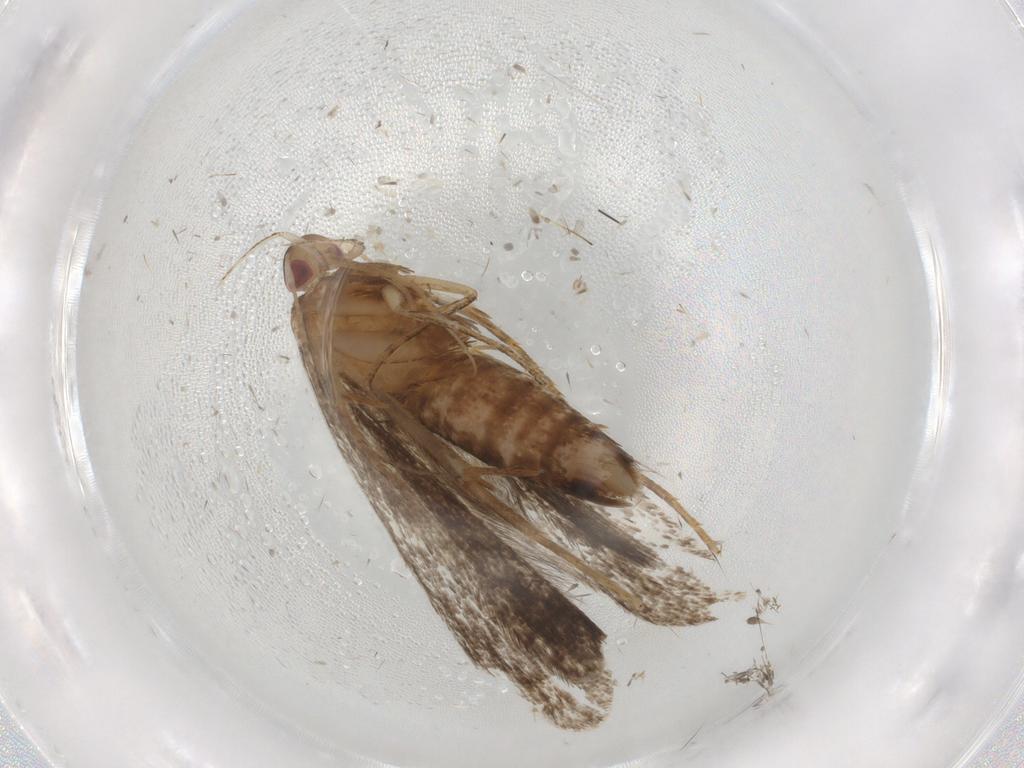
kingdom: Animalia
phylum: Arthropoda
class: Insecta
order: Lepidoptera
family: Gelechiidae
